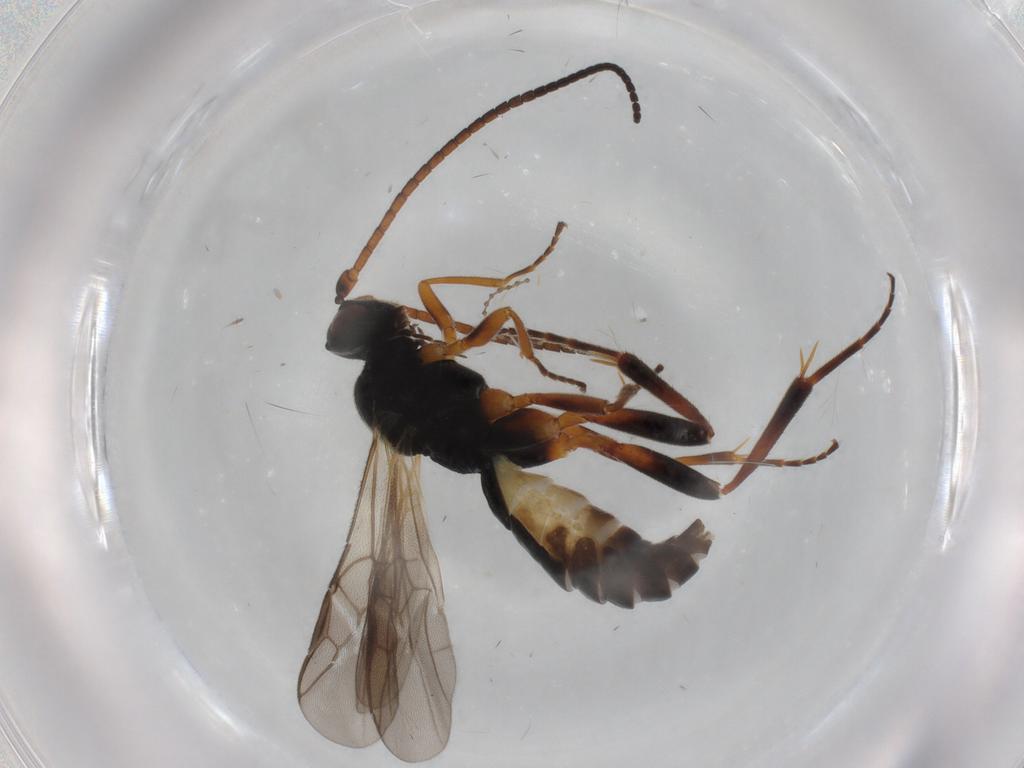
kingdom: Animalia
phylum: Arthropoda
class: Insecta
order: Hymenoptera
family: Braconidae
